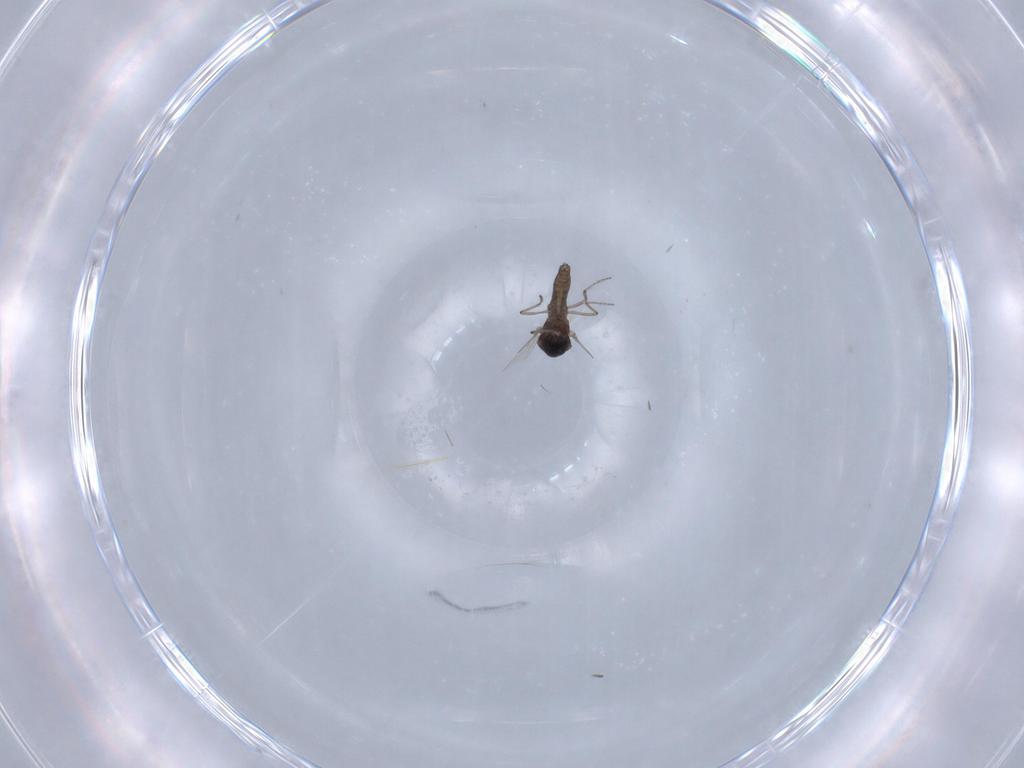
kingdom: Animalia
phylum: Arthropoda
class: Insecta
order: Diptera
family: Ceratopogonidae
